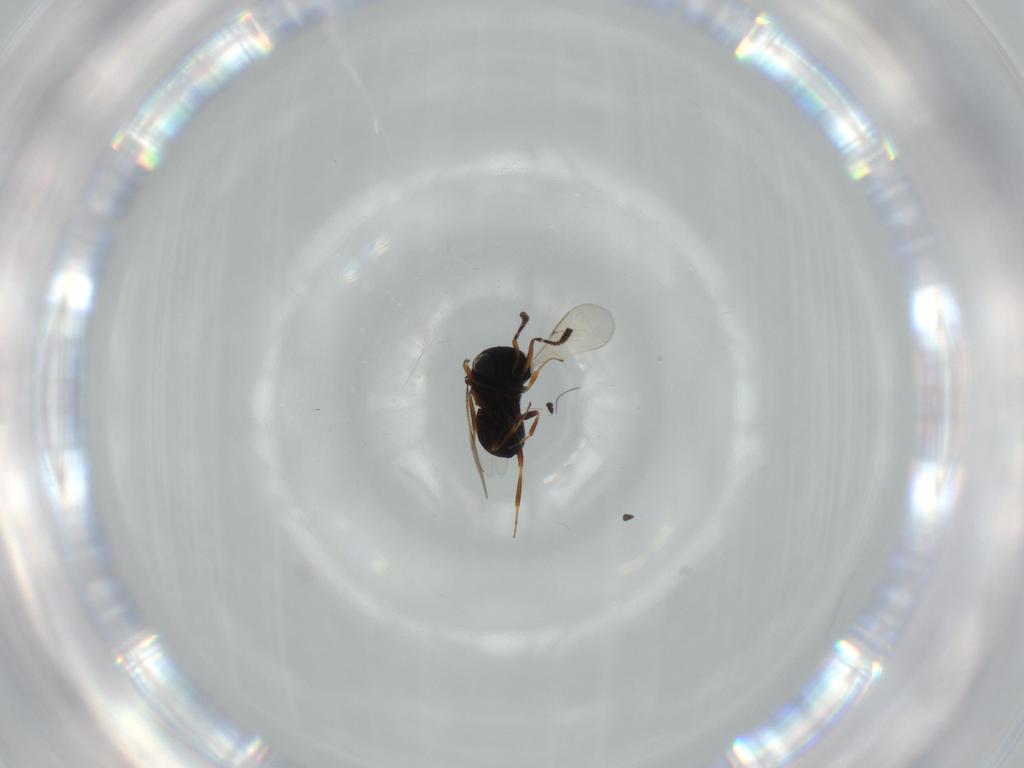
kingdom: Animalia
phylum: Arthropoda
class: Insecta
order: Hymenoptera
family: Scelionidae
